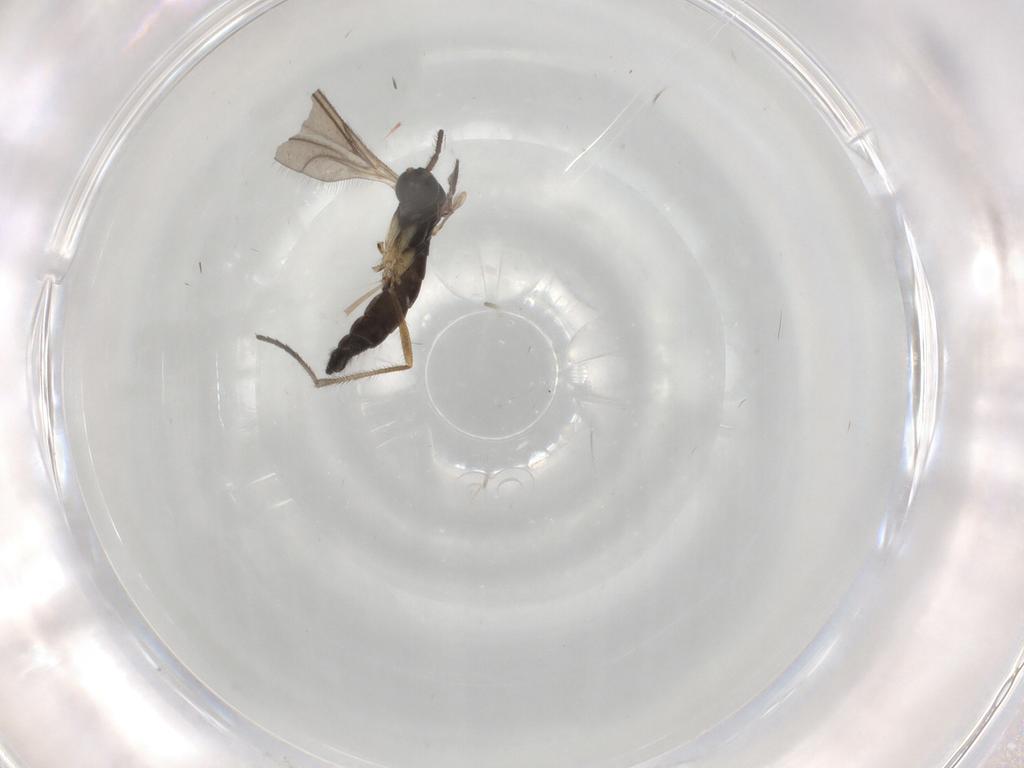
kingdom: Animalia
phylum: Arthropoda
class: Insecta
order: Diptera
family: Sciaridae
